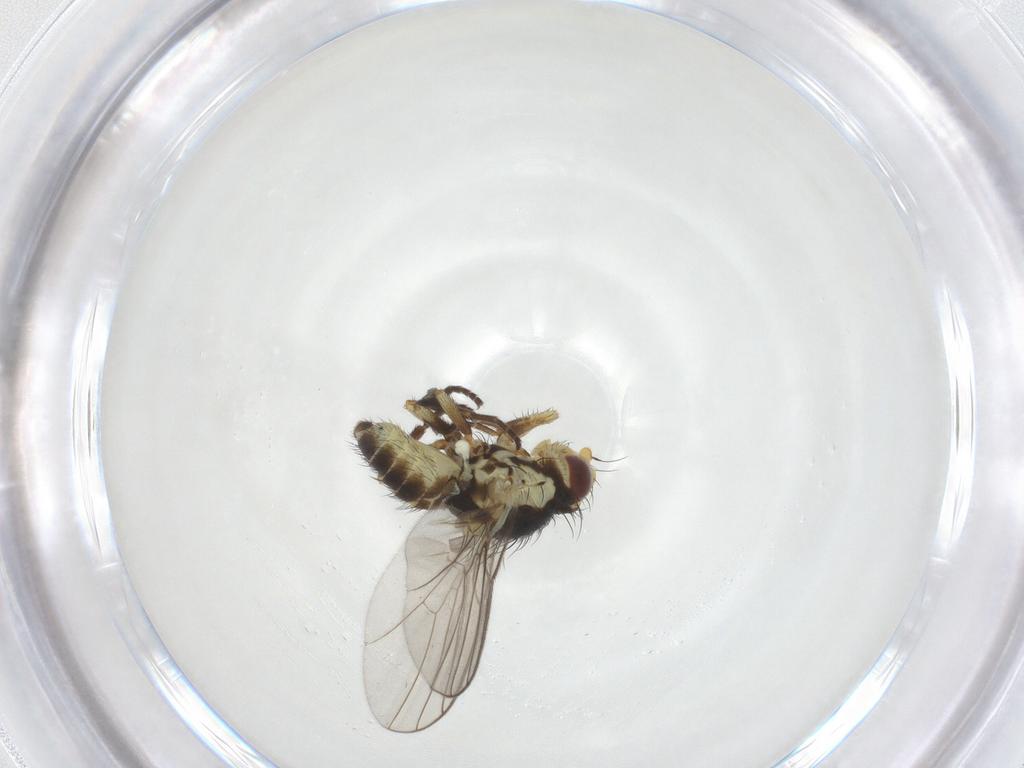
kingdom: Animalia
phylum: Arthropoda
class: Insecta
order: Diptera
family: Agromyzidae
